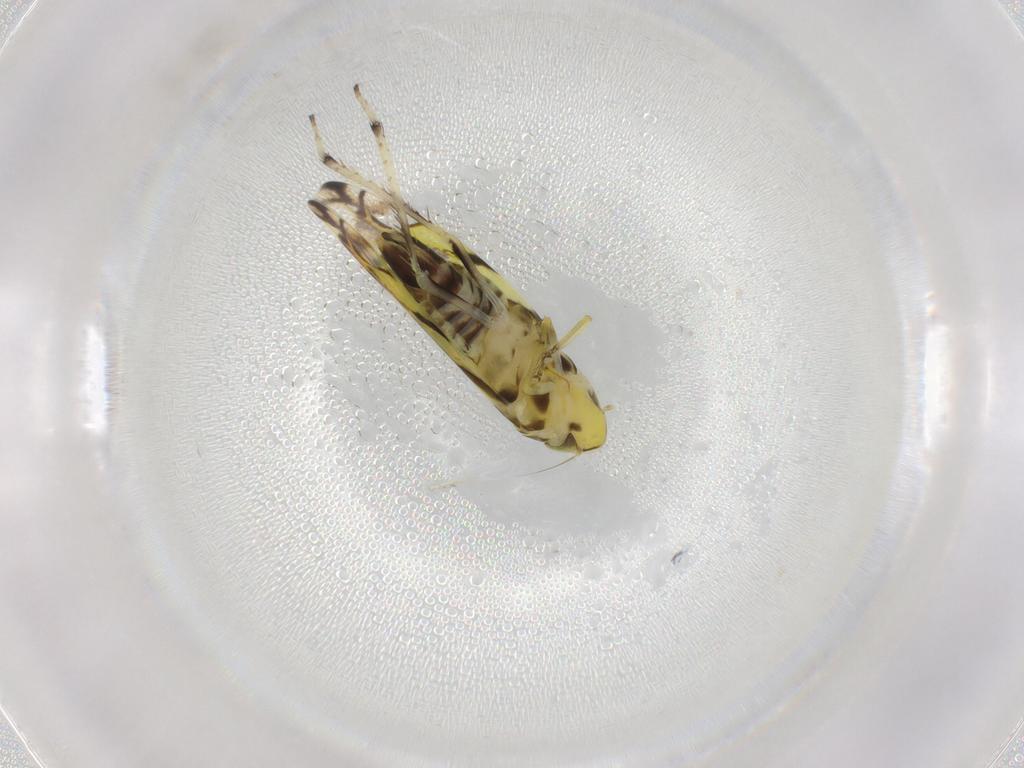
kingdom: Animalia
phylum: Arthropoda
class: Insecta
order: Hemiptera
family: Cicadellidae
